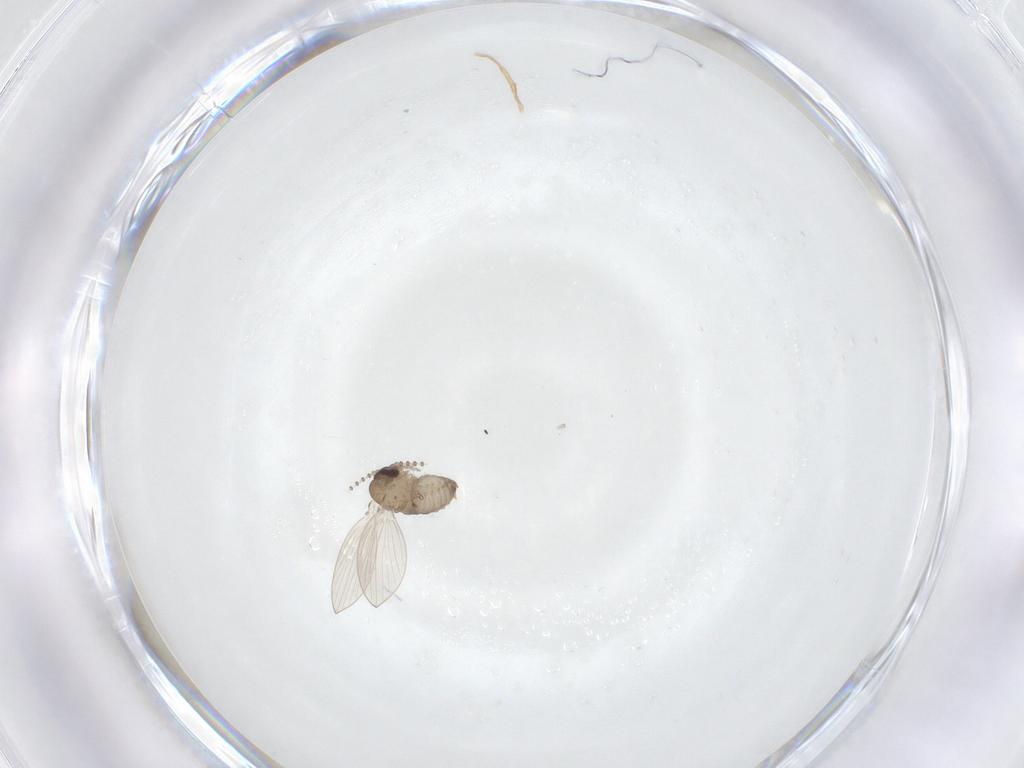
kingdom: Animalia
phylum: Arthropoda
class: Insecta
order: Diptera
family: Psychodidae
